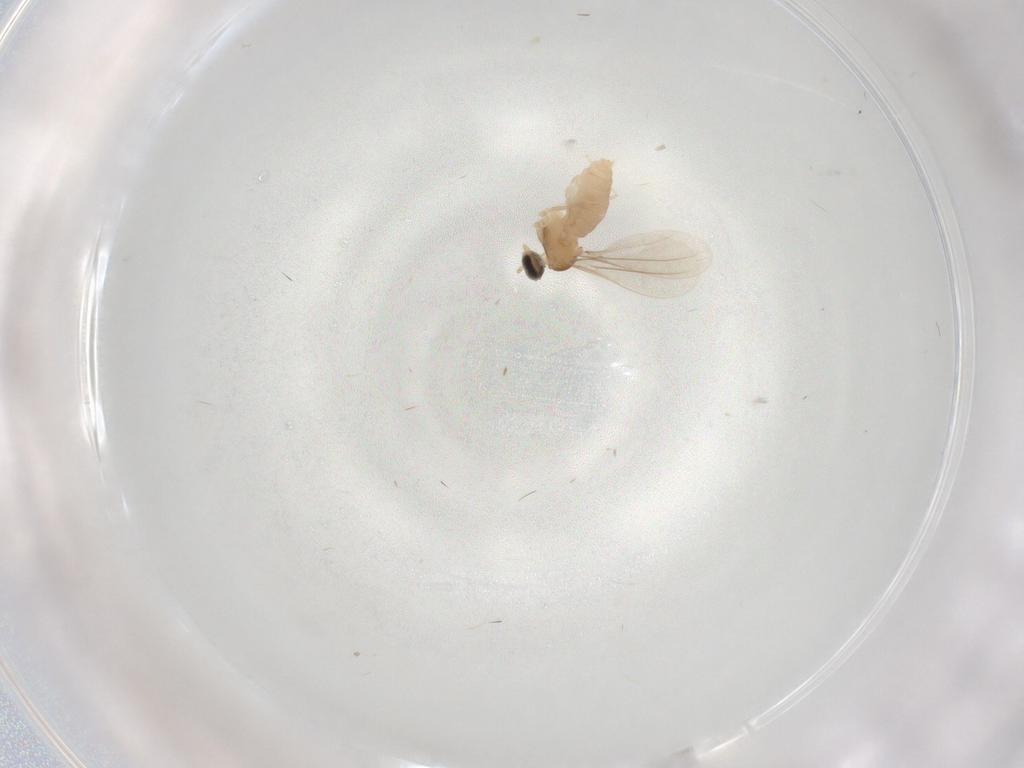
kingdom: Animalia
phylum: Arthropoda
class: Insecta
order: Diptera
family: Cecidomyiidae
